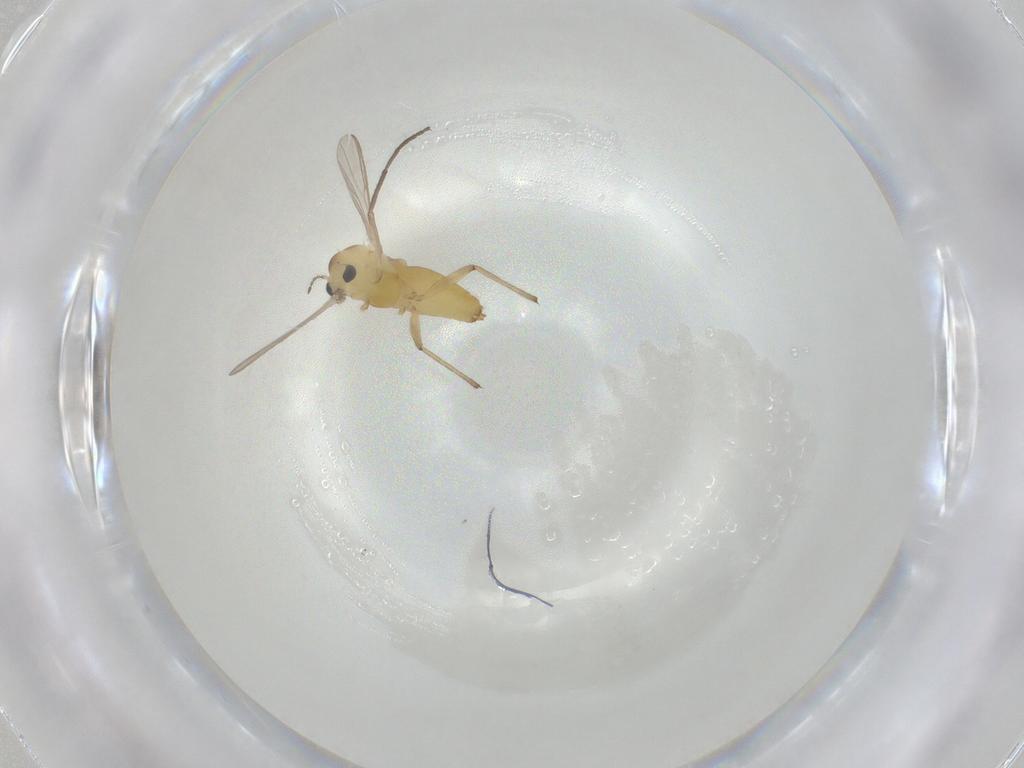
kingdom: Animalia
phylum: Arthropoda
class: Insecta
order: Diptera
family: Chironomidae
